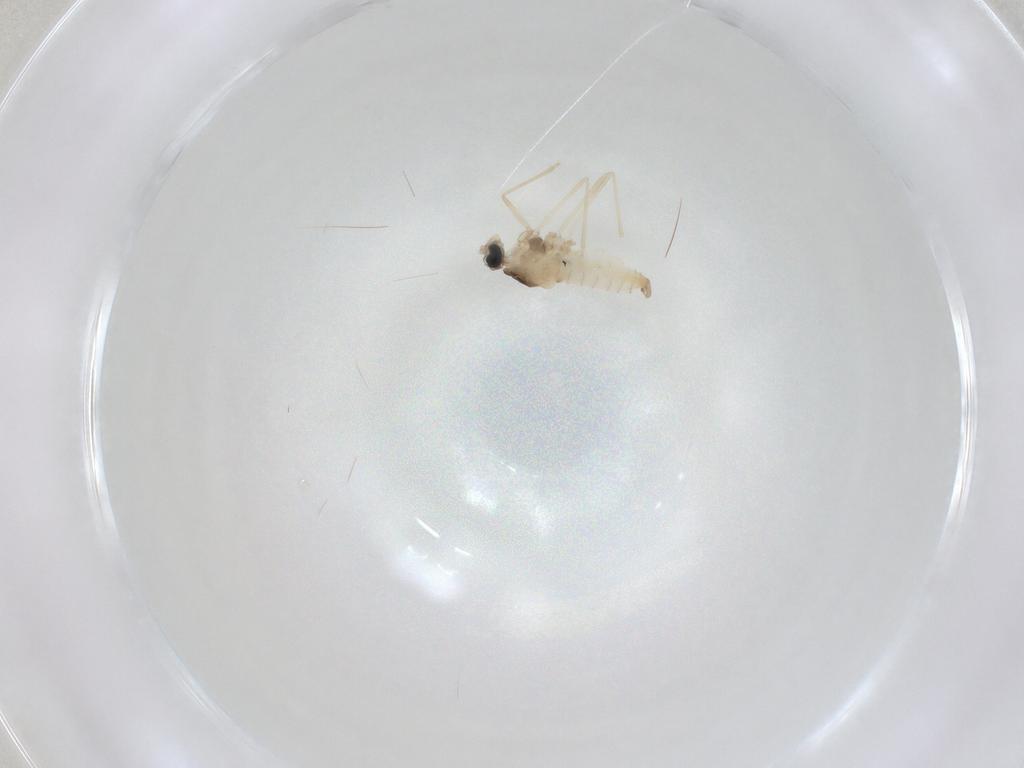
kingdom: Animalia
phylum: Arthropoda
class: Insecta
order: Diptera
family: Cecidomyiidae
